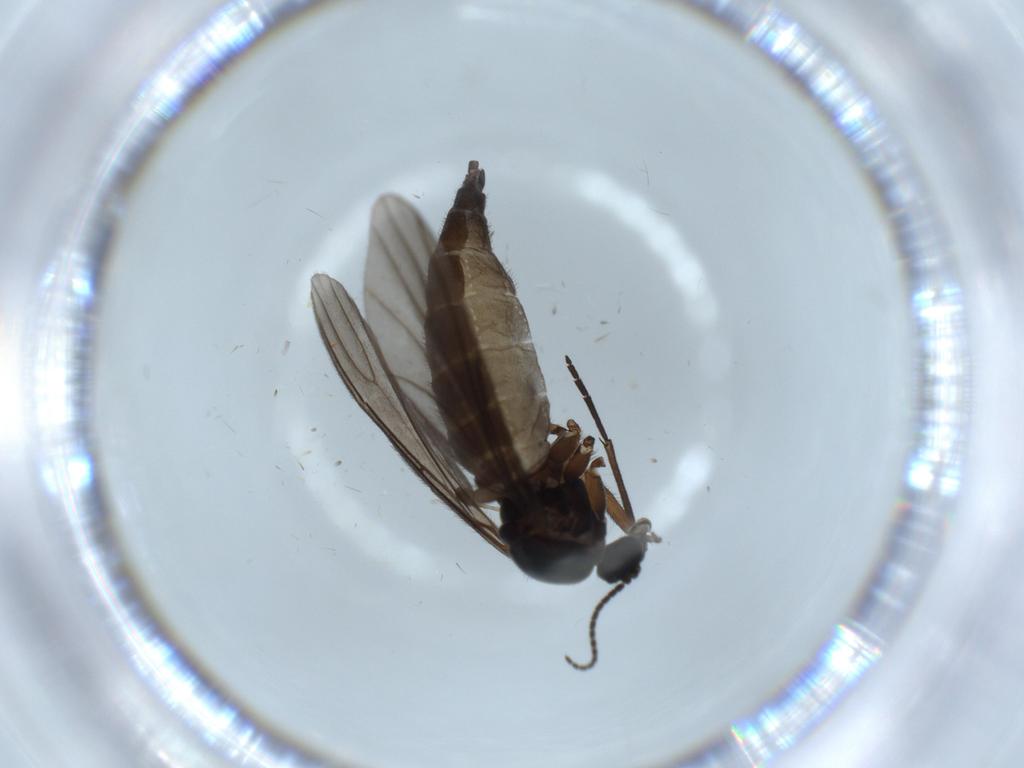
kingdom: Animalia
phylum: Arthropoda
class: Insecta
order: Diptera
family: Sciaridae
